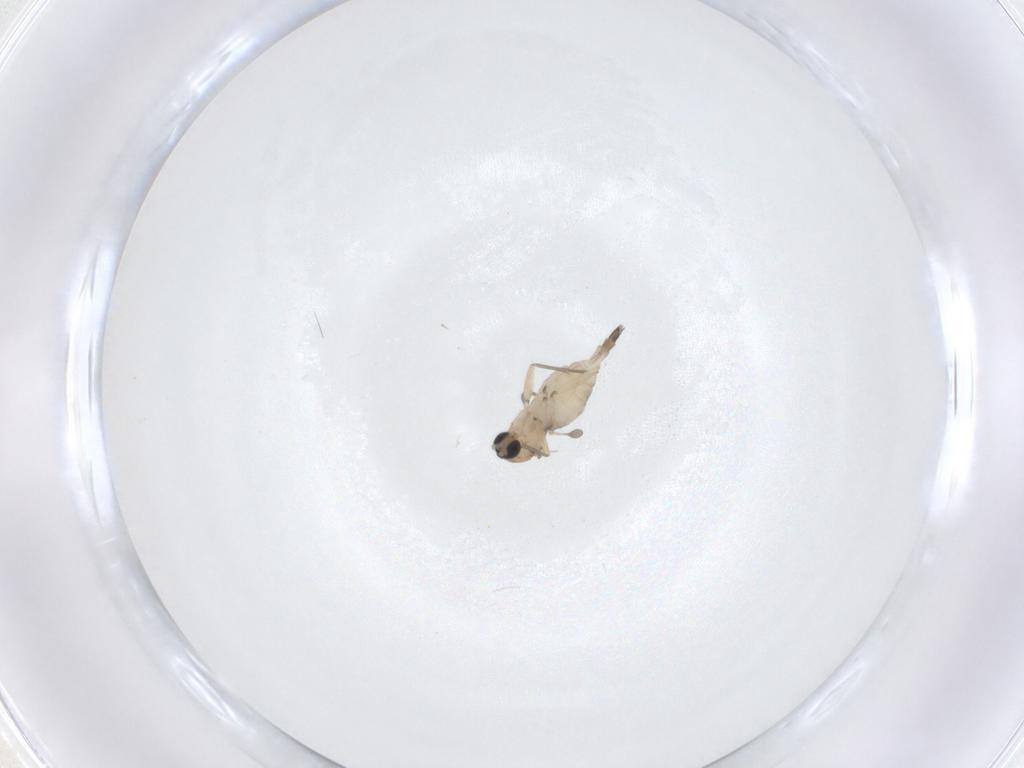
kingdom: Animalia
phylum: Arthropoda
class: Insecta
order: Diptera
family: Sciaridae
